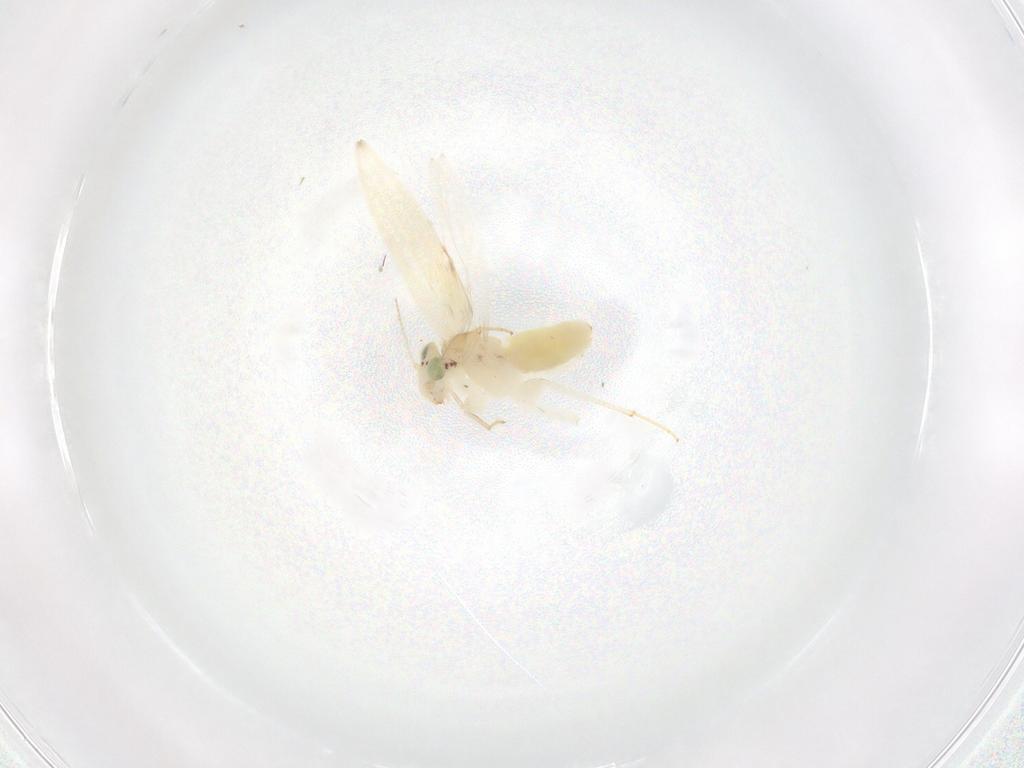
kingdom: Animalia
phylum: Arthropoda
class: Insecta
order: Psocodea
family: Lepidopsocidae
